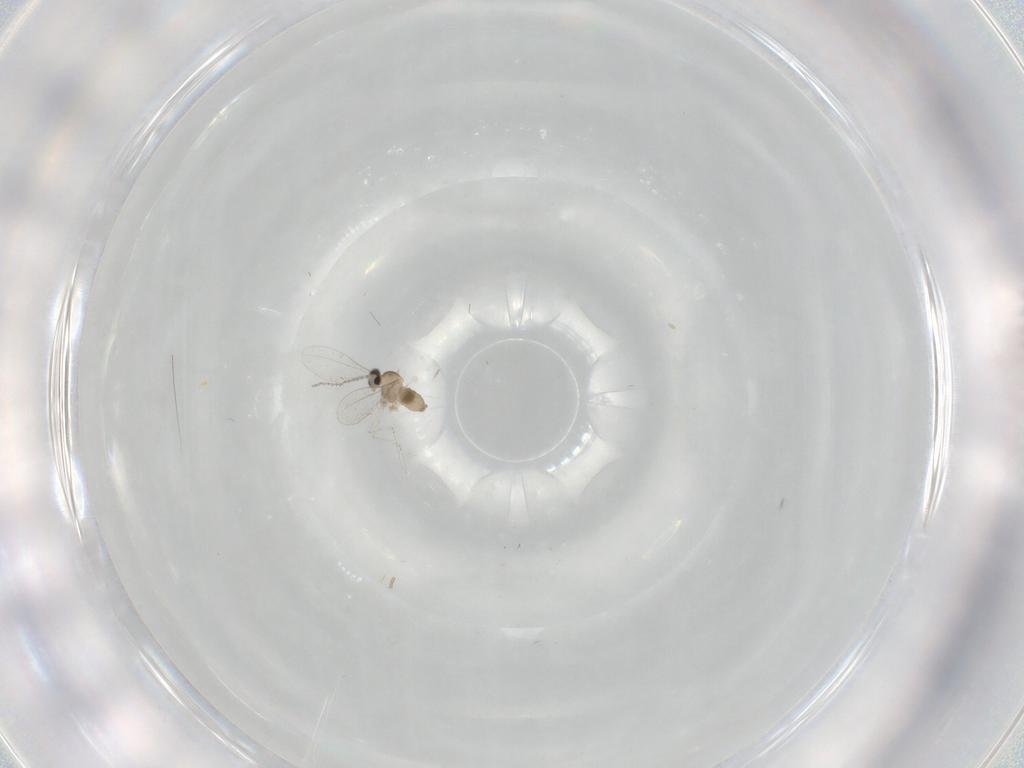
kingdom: Animalia
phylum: Arthropoda
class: Insecta
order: Diptera
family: Cecidomyiidae
